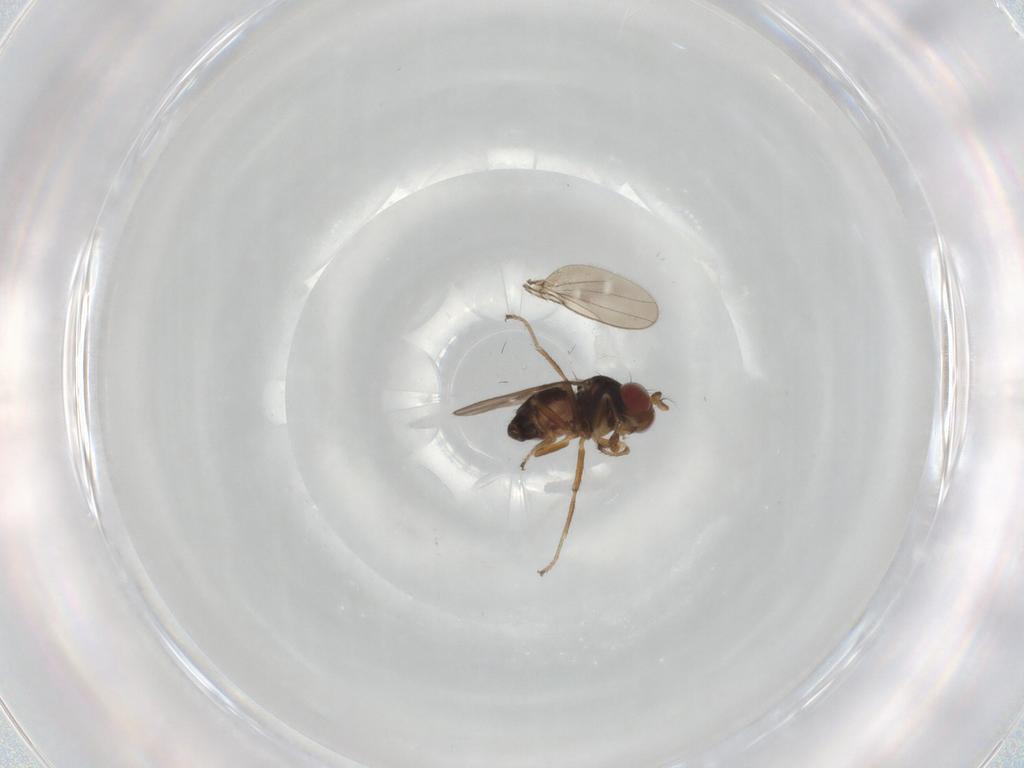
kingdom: Animalia
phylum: Arthropoda
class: Insecta
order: Diptera
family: Ephydridae
